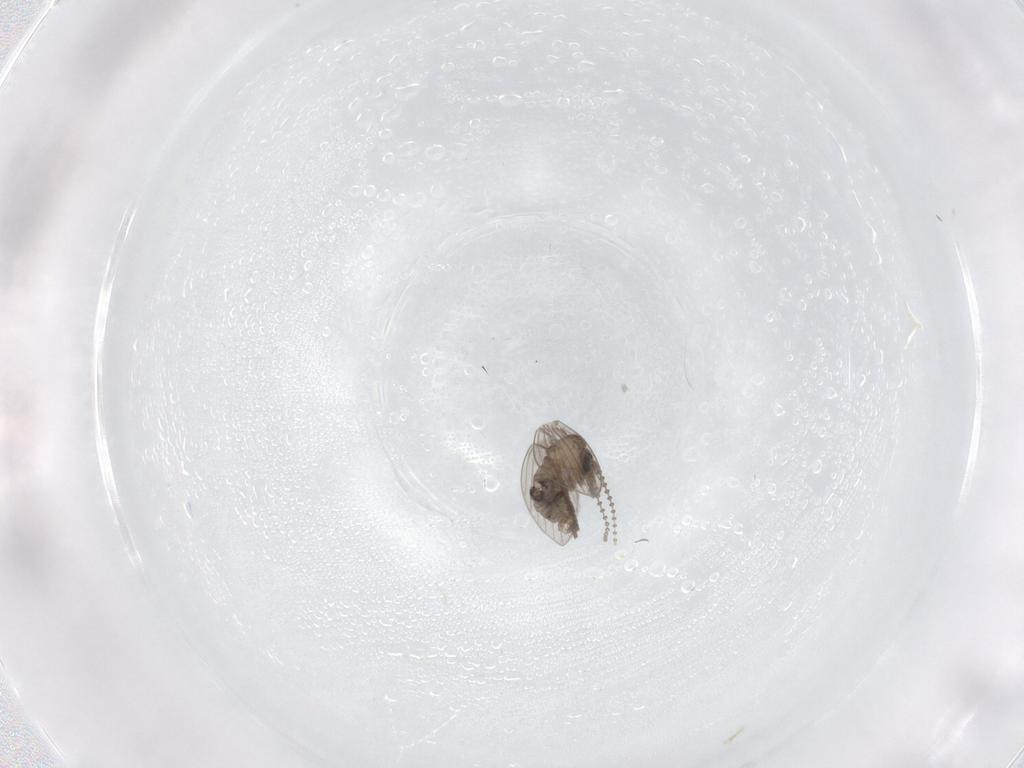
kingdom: Animalia
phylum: Arthropoda
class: Insecta
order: Diptera
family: Psychodidae
